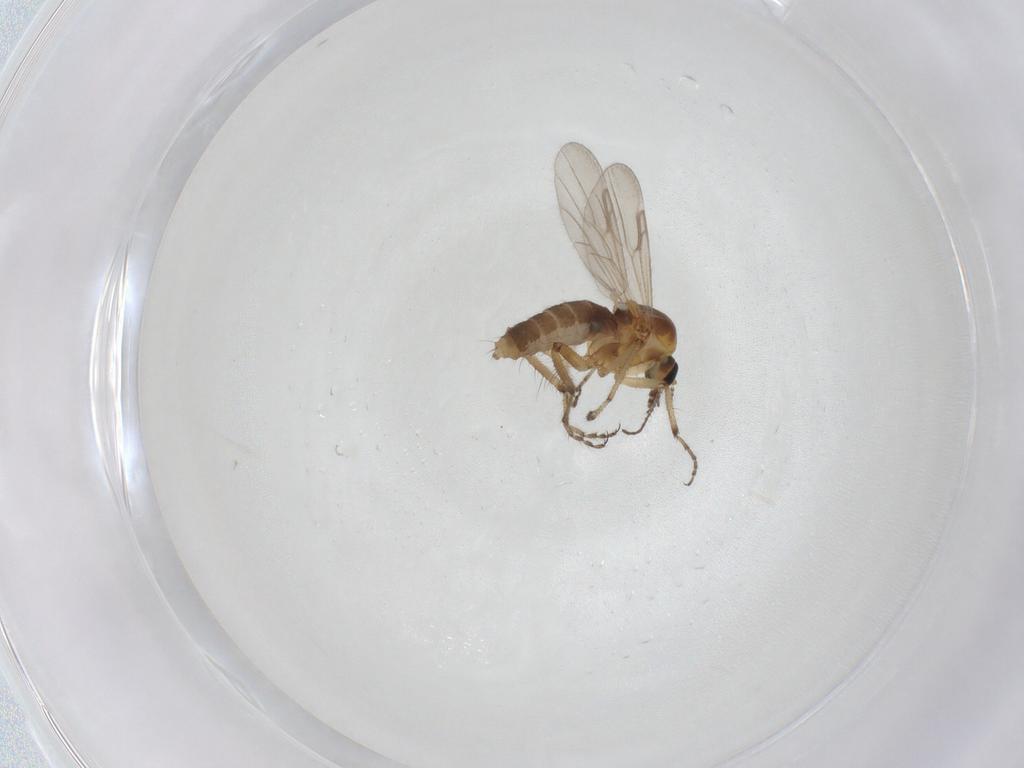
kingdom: Animalia
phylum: Arthropoda
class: Insecta
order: Diptera
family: Ceratopogonidae
